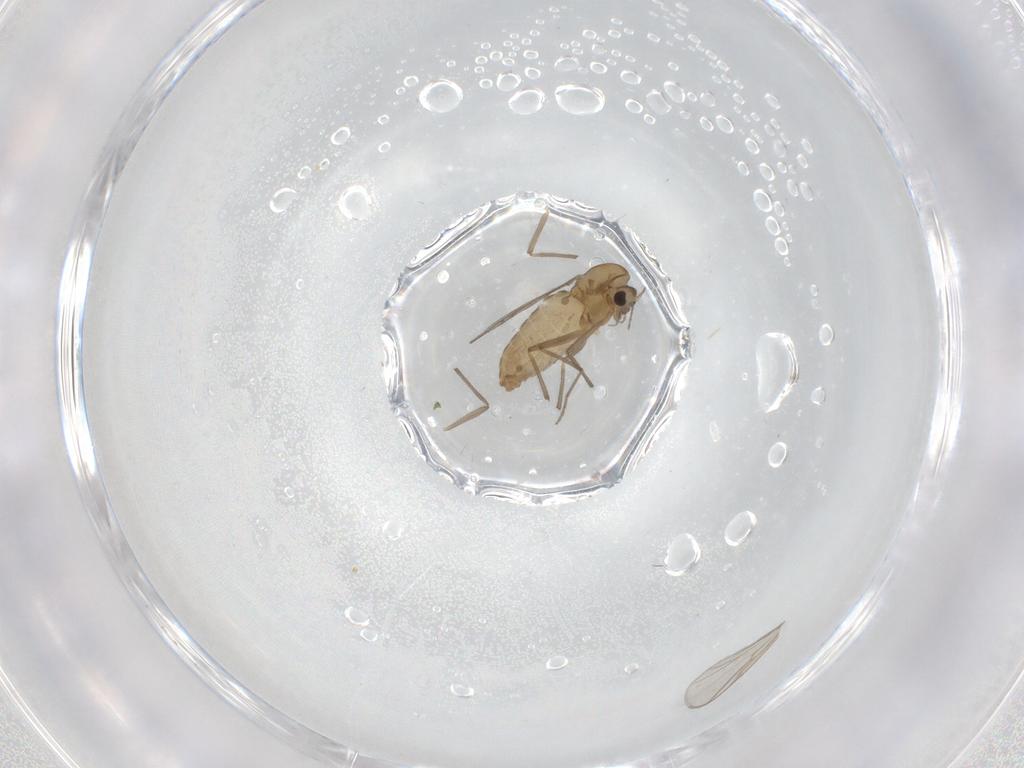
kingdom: Animalia
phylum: Arthropoda
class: Insecta
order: Diptera
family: Chironomidae
